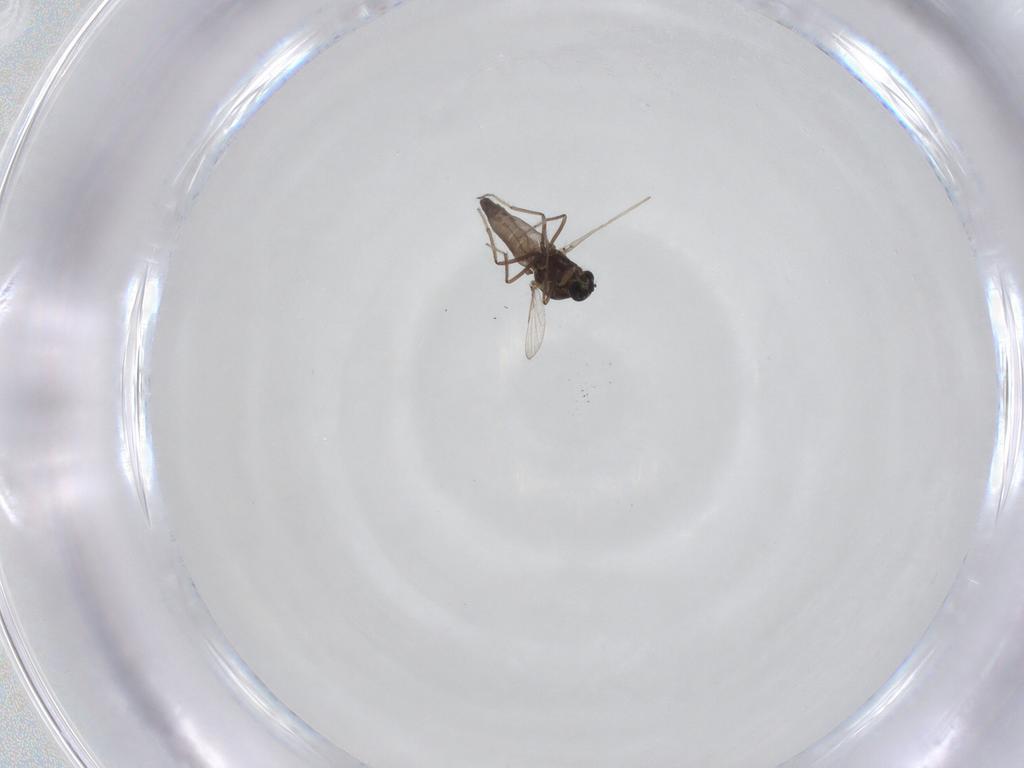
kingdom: Animalia
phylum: Arthropoda
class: Insecta
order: Diptera
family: Ceratopogonidae
